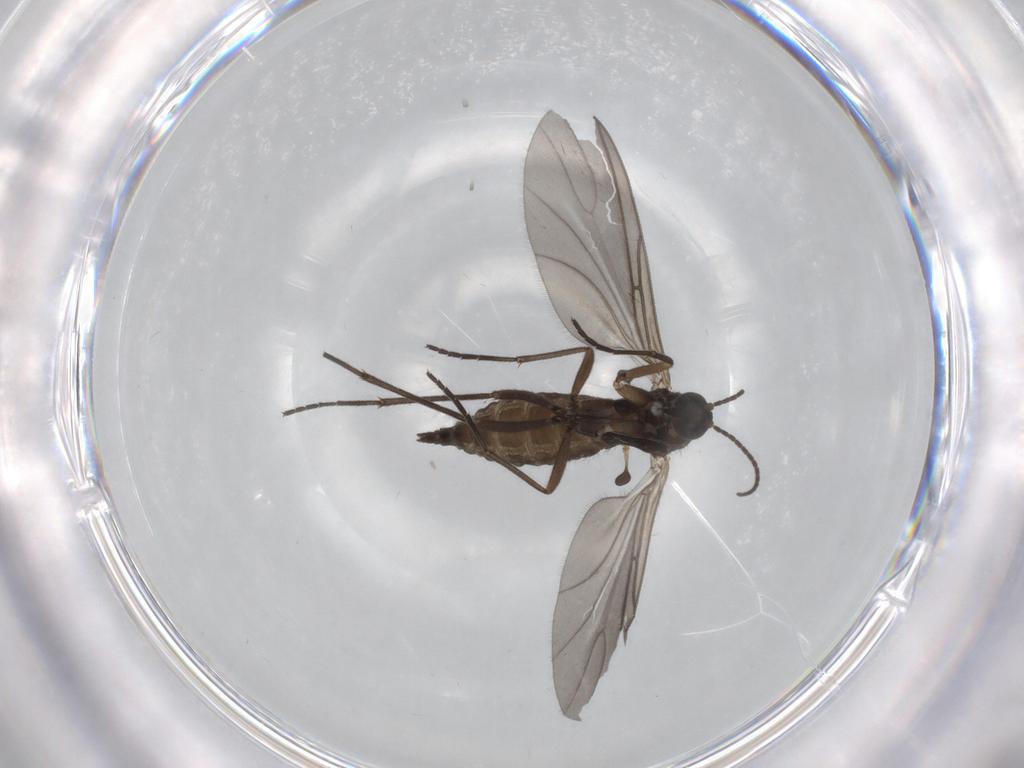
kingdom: Animalia
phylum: Arthropoda
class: Insecta
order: Diptera
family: Sciaridae
